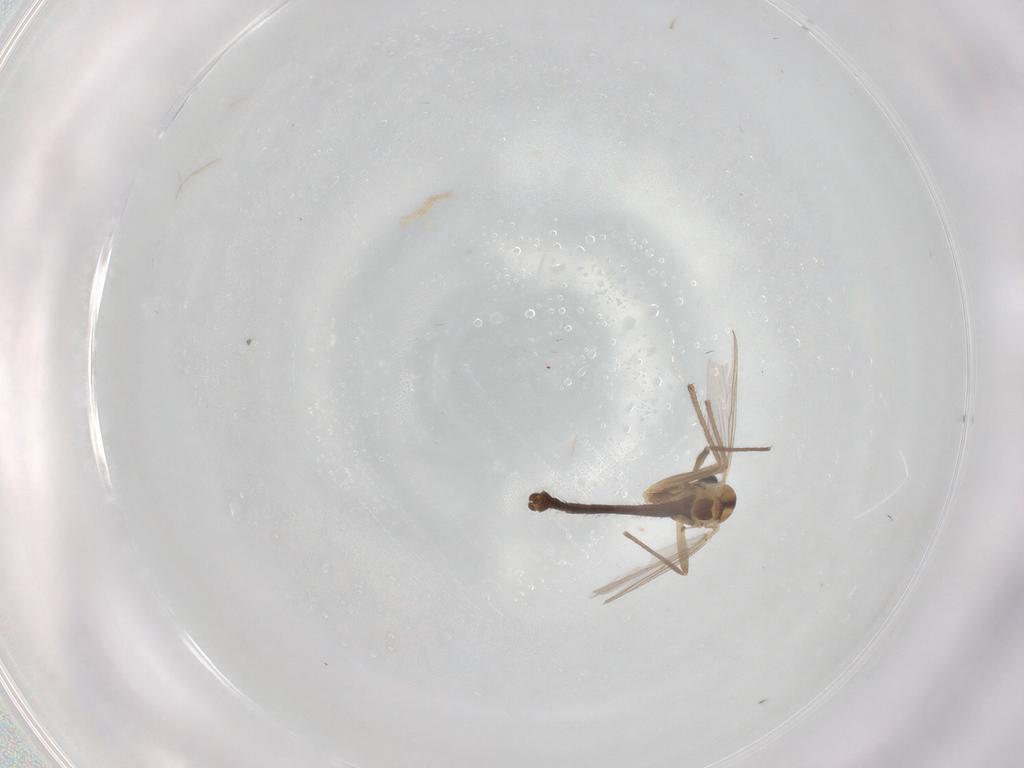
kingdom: Animalia
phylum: Arthropoda
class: Insecta
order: Diptera
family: Chironomidae
